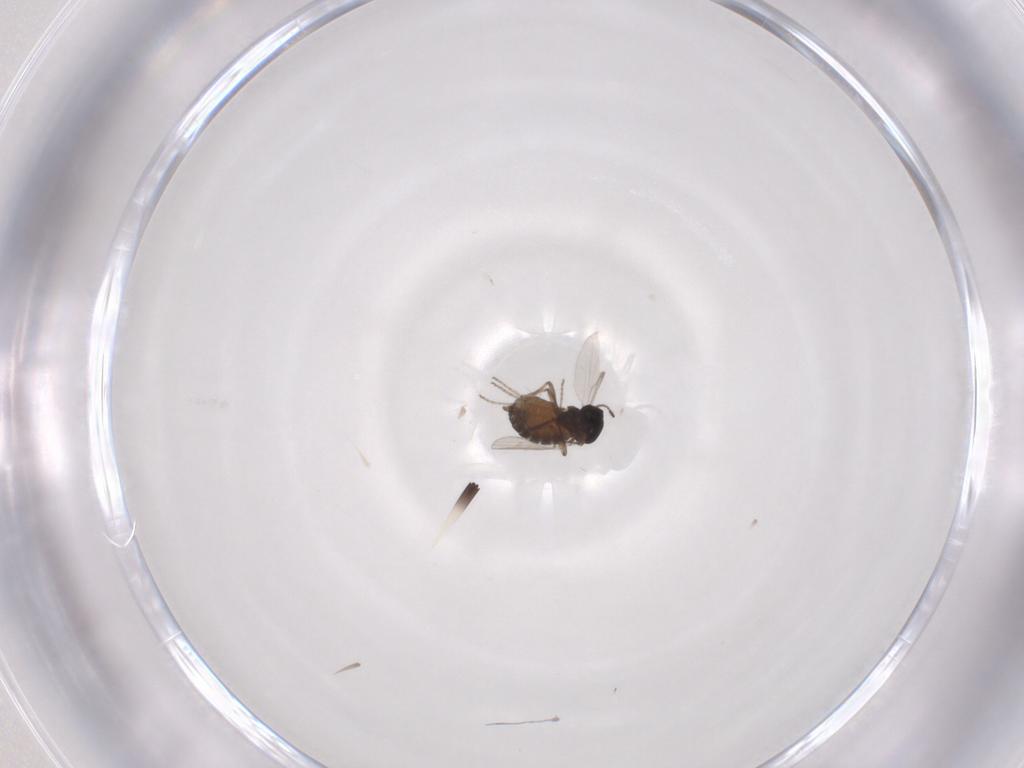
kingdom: Animalia
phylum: Arthropoda
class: Insecta
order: Diptera
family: Ceratopogonidae
